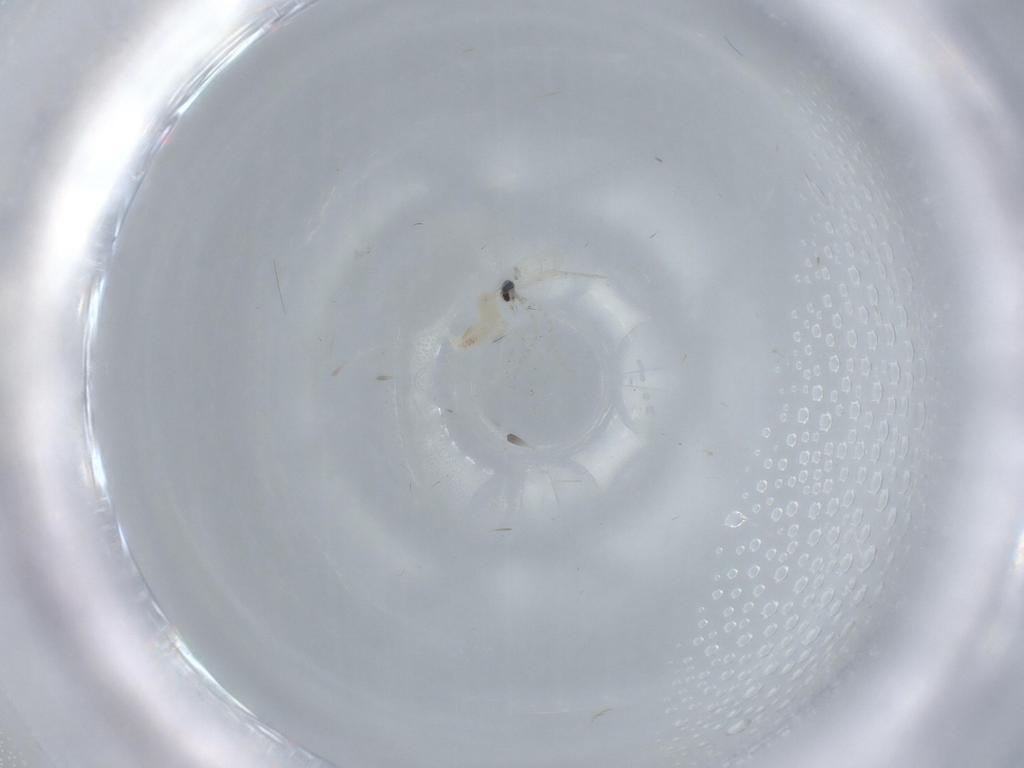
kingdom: Animalia
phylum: Arthropoda
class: Insecta
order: Diptera
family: Cecidomyiidae
